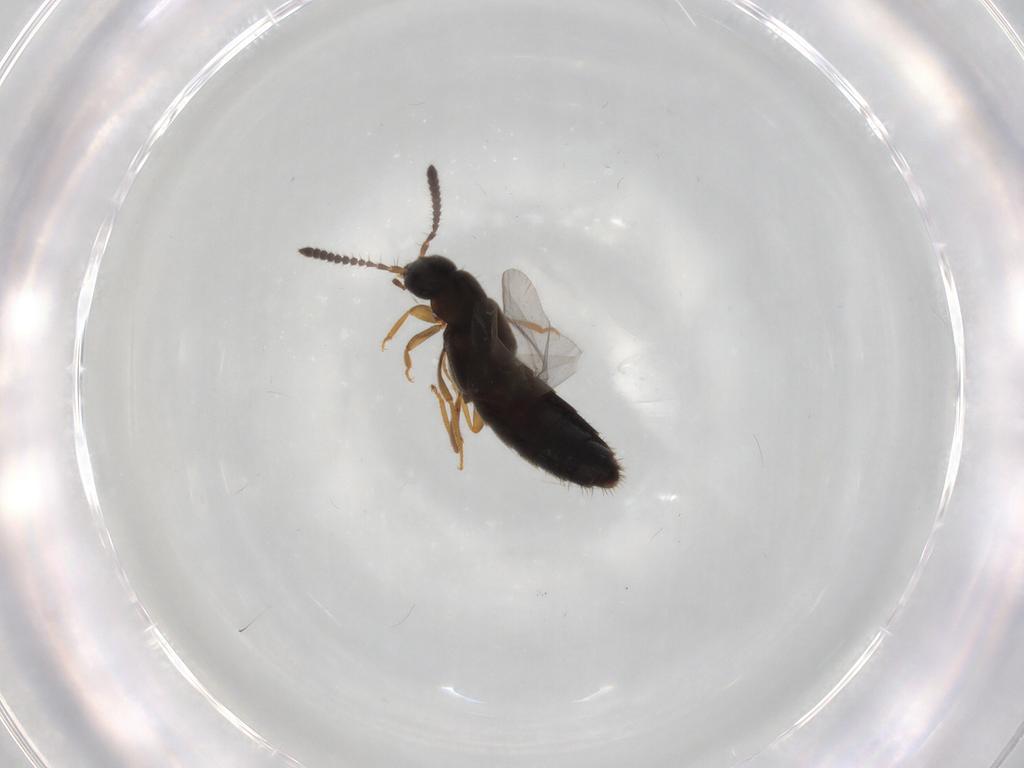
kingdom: Animalia
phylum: Arthropoda
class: Insecta
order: Coleoptera
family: Staphylinidae
